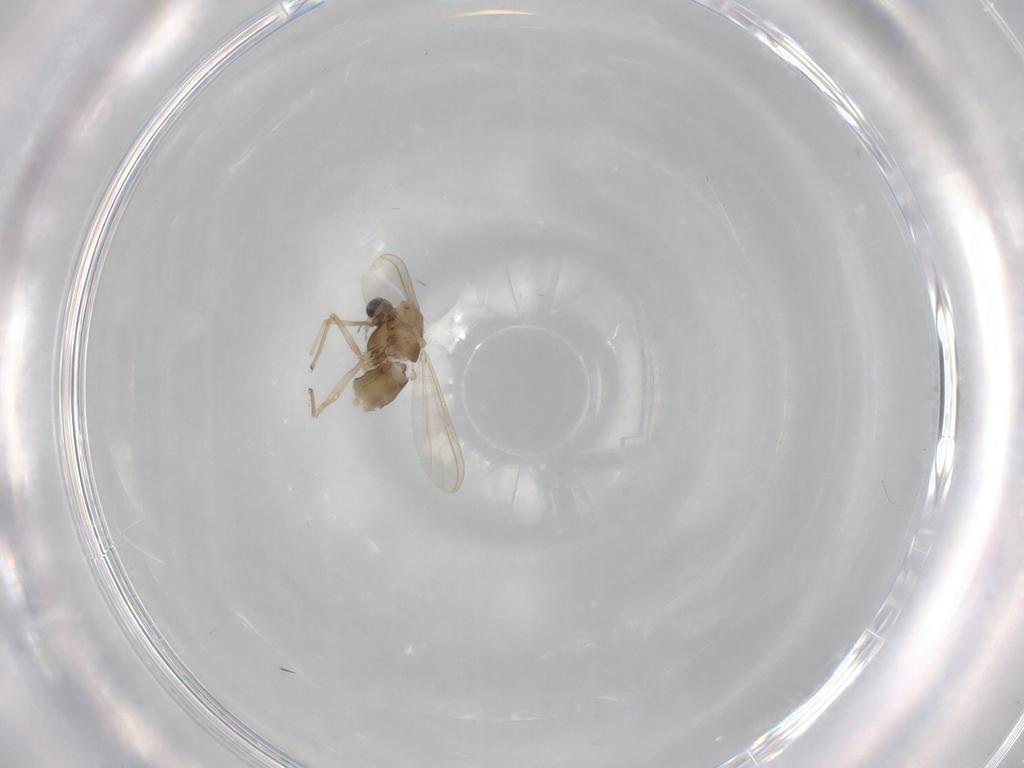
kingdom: Animalia
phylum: Arthropoda
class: Insecta
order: Diptera
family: Chironomidae
